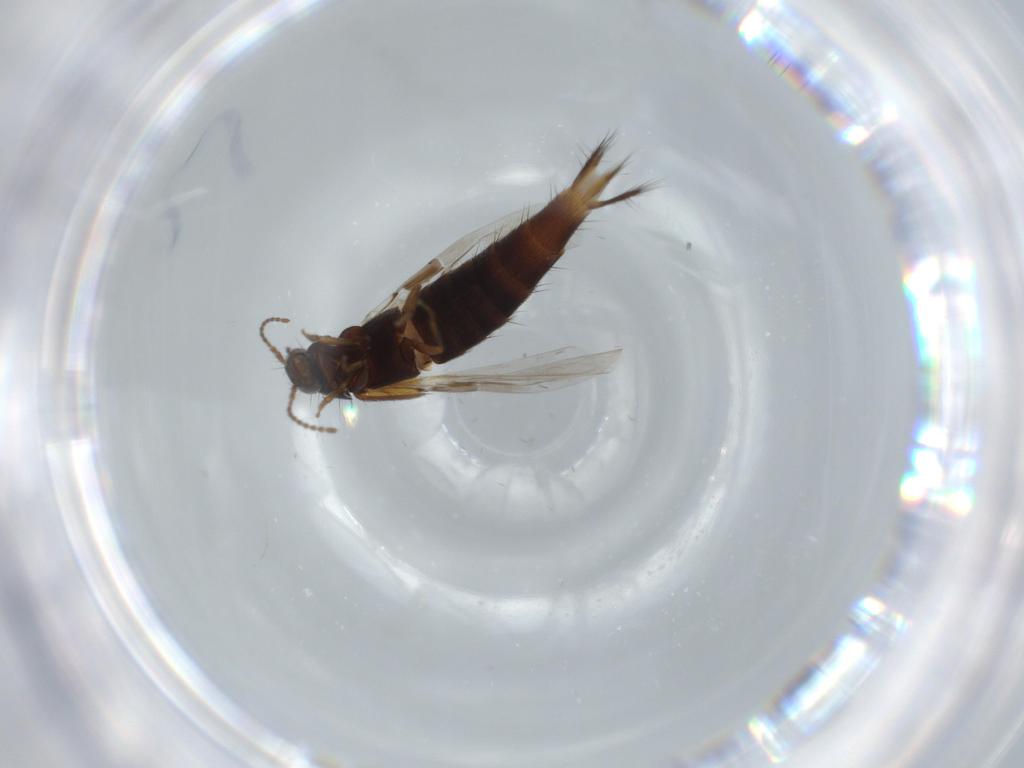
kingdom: Animalia
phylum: Arthropoda
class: Insecta
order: Coleoptera
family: Staphylinidae
